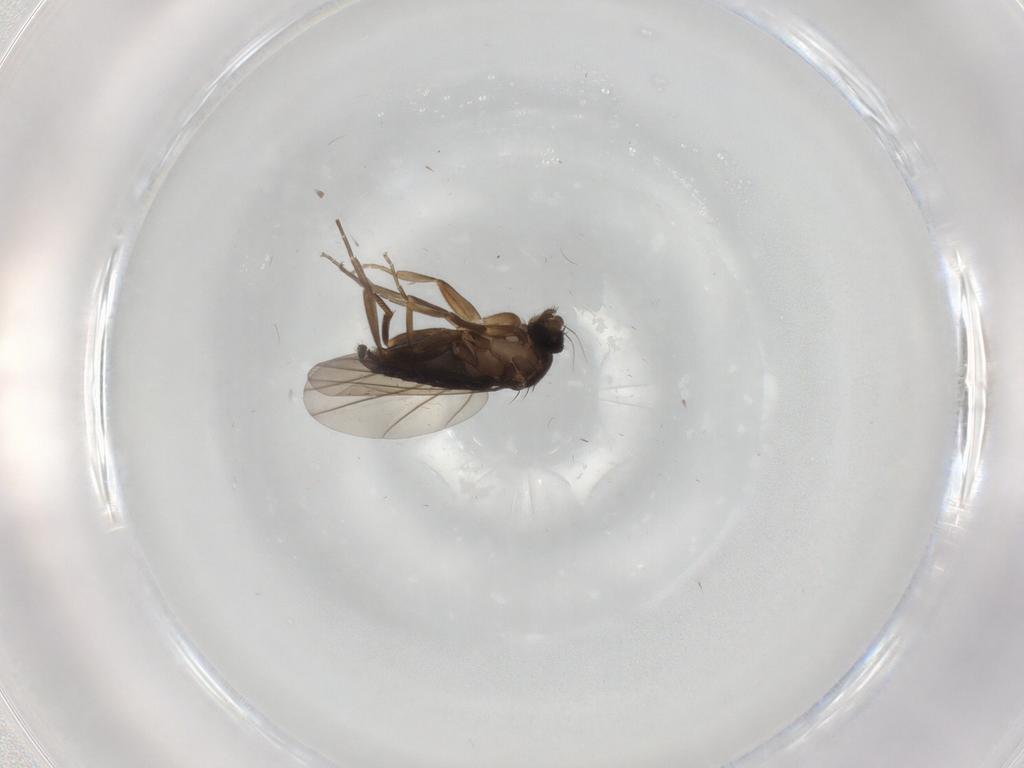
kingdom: Animalia
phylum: Arthropoda
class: Insecta
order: Diptera
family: Phoridae
